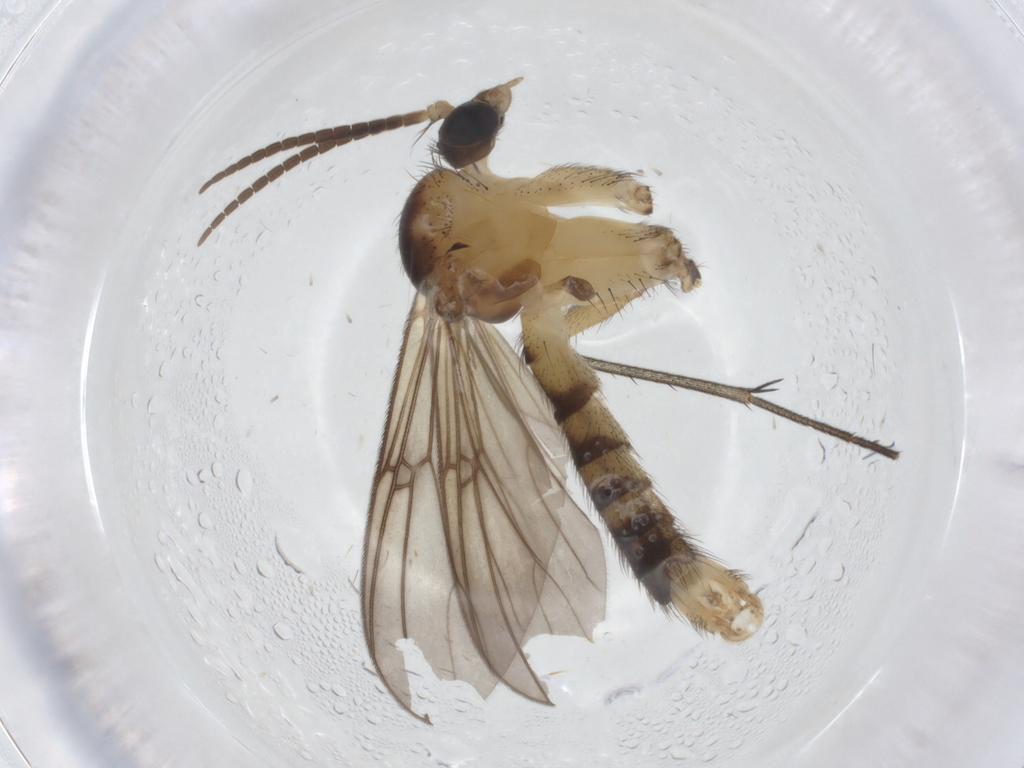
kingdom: Animalia
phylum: Arthropoda
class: Insecta
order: Diptera
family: Mycetophilidae
